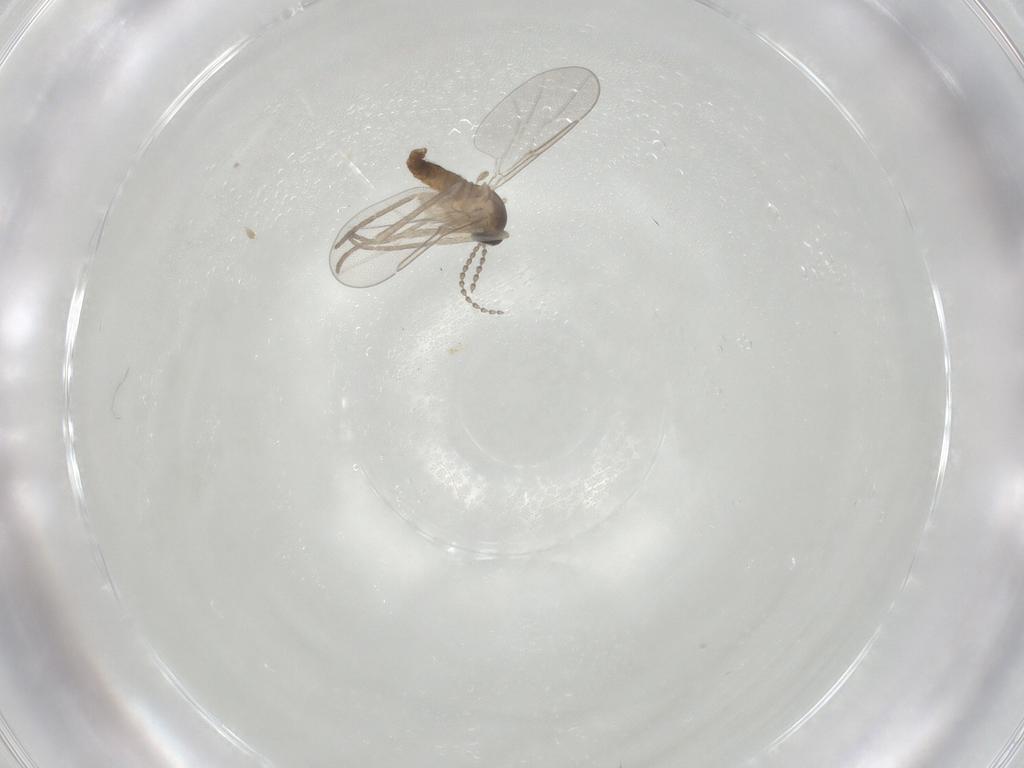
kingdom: Animalia
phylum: Arthropoda
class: Insecta
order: Diptera
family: Cecidomyiidae
